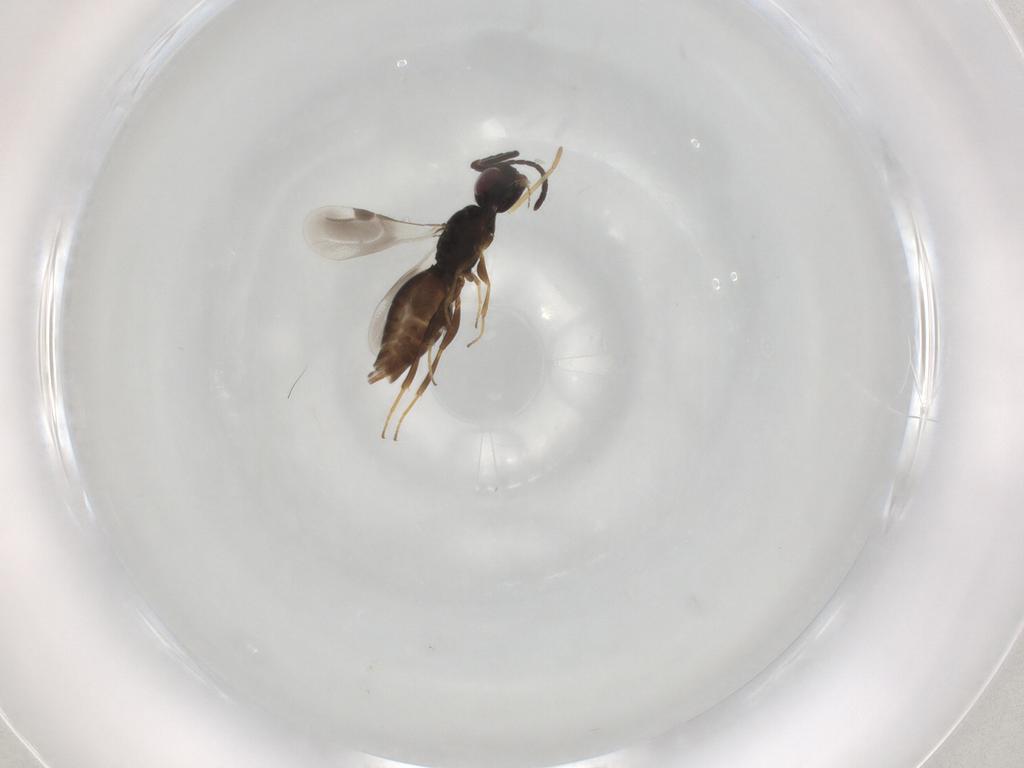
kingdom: Animalia
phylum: Arthropoda
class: Insecta
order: Hymenoptera
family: Megaspilidae
